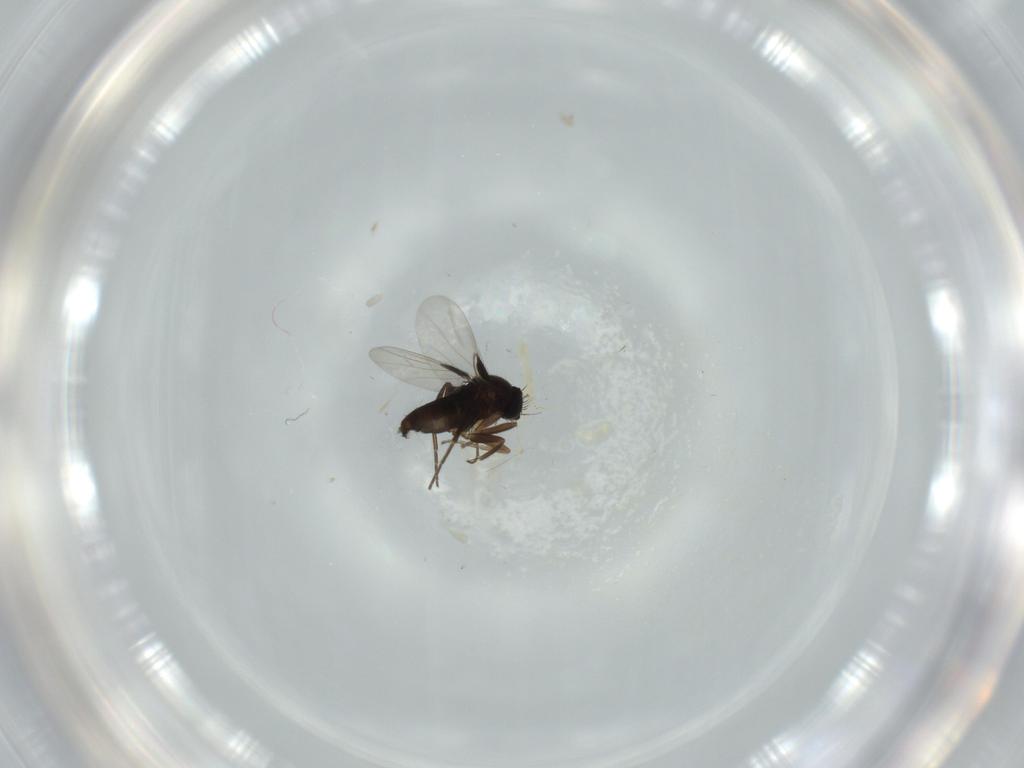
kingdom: Animalia
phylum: Arthropoda
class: Insecta
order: Diptera
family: Phoridae
